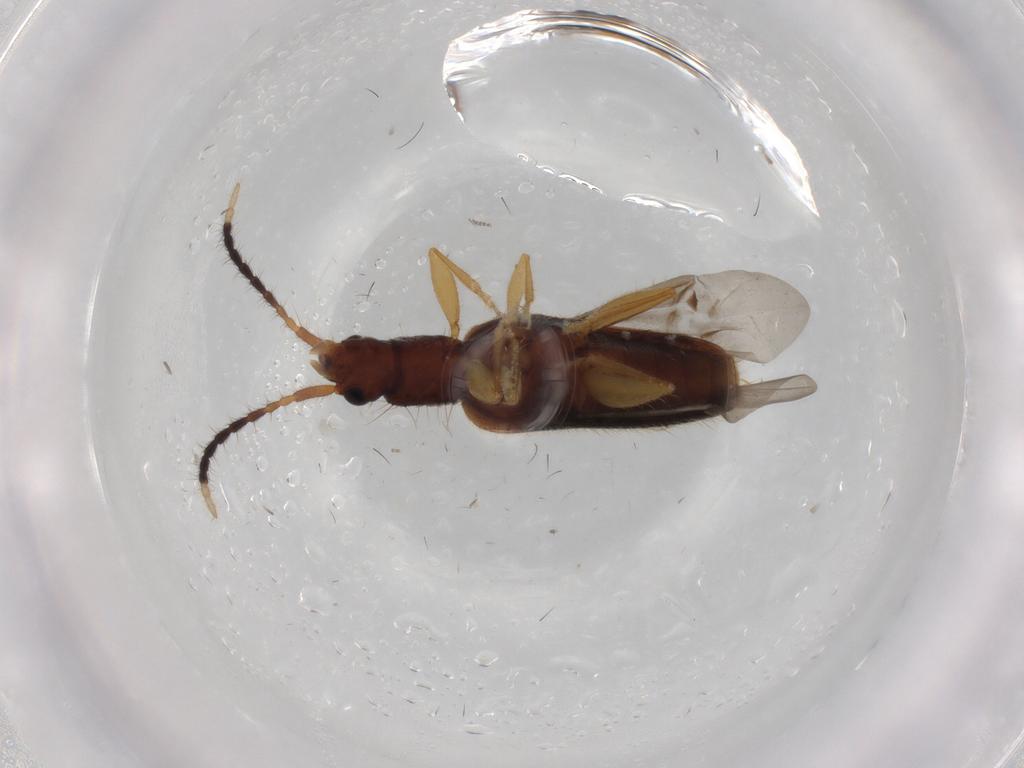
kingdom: Animalia
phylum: Arthropoda
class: Insecta
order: Coleoptera
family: Silvanidae
